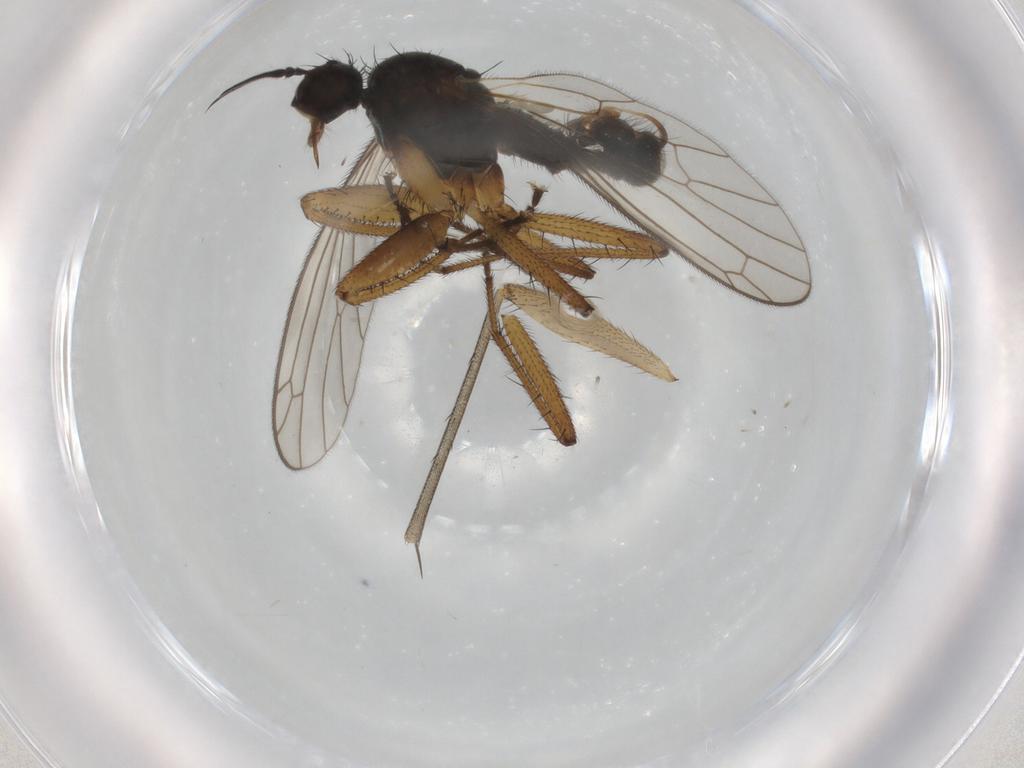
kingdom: Animalia
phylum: Arthropoda
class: Insecta
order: Diptera
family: Empididae
